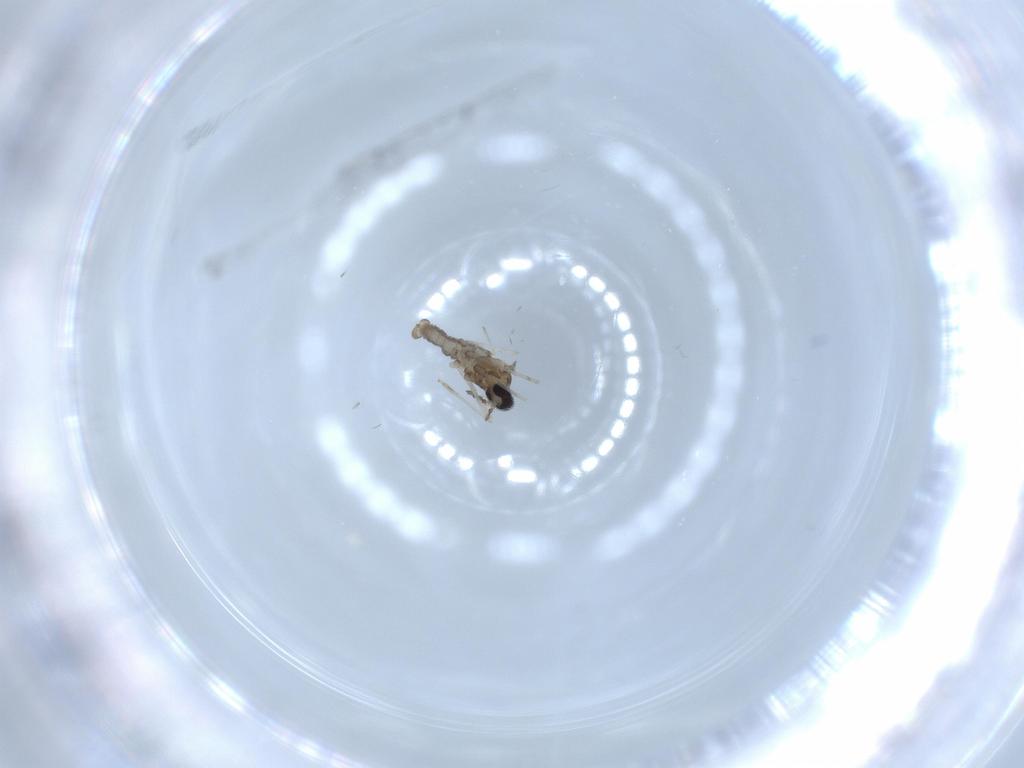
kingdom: Animalia
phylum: Arthropoda
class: Insecta
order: Diptera
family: Cecidomyiidae
